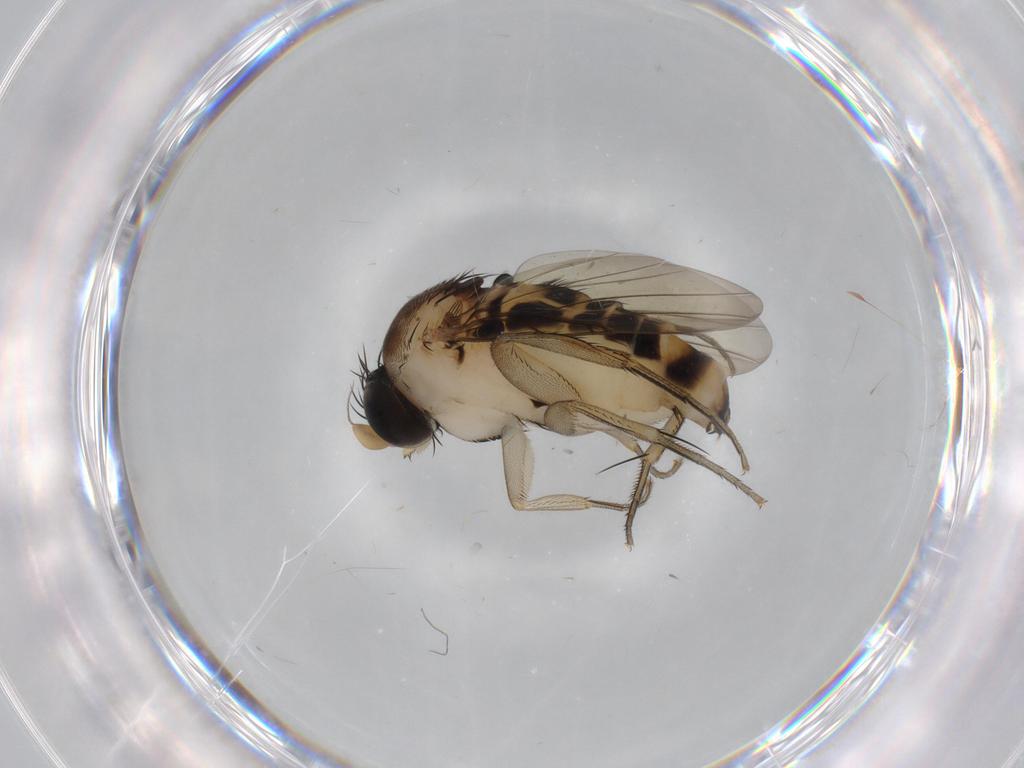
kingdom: Animalia
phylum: Arthropoda
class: Insecta
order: Diptera
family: Phoridae
